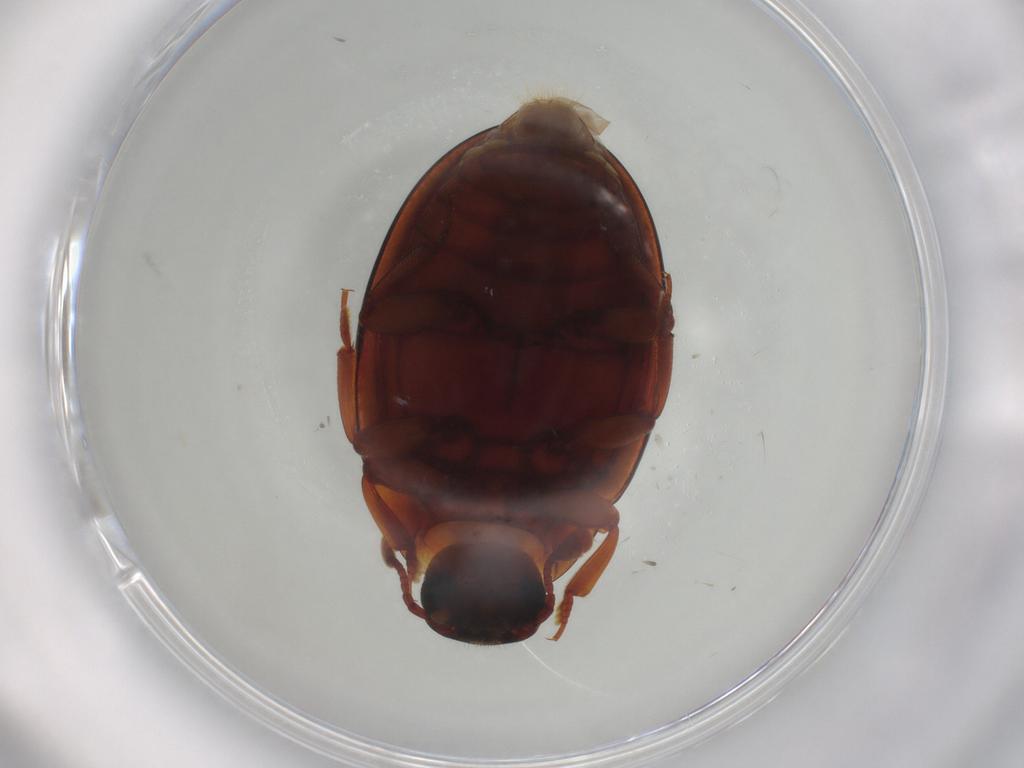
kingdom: Animalia
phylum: Arthropoda
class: Insecta
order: Coleoptera
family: Zopheridae
